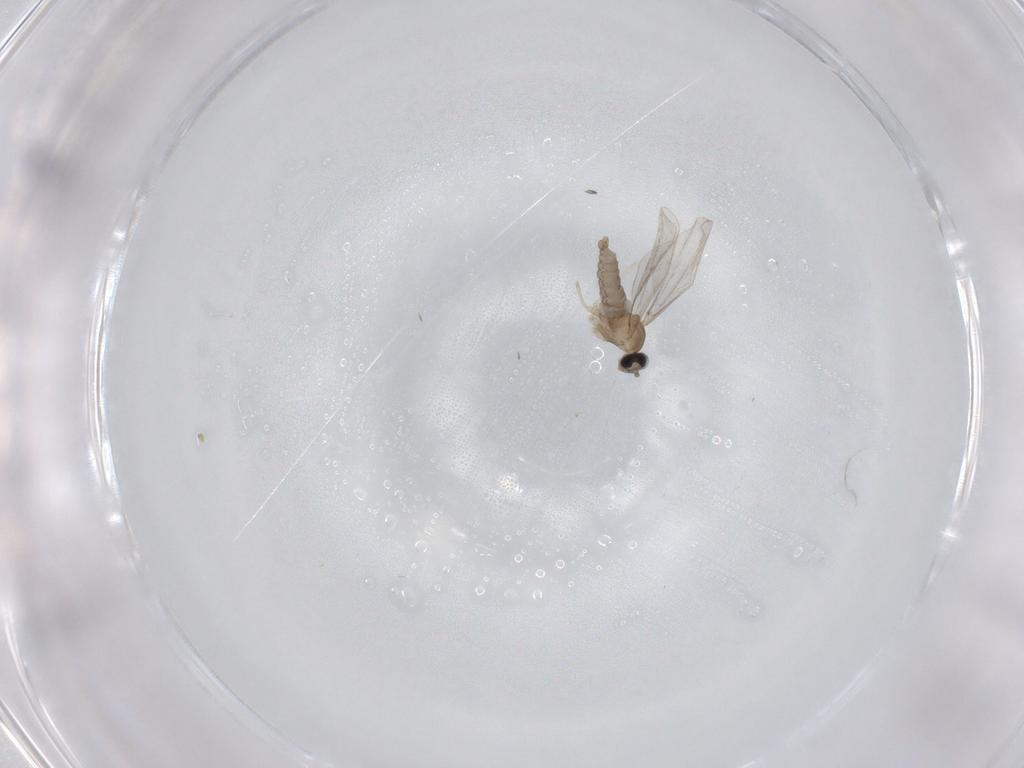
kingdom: Animalia
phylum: Arthropoda
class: Insecta
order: Diptera
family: Cecidomyiidae
